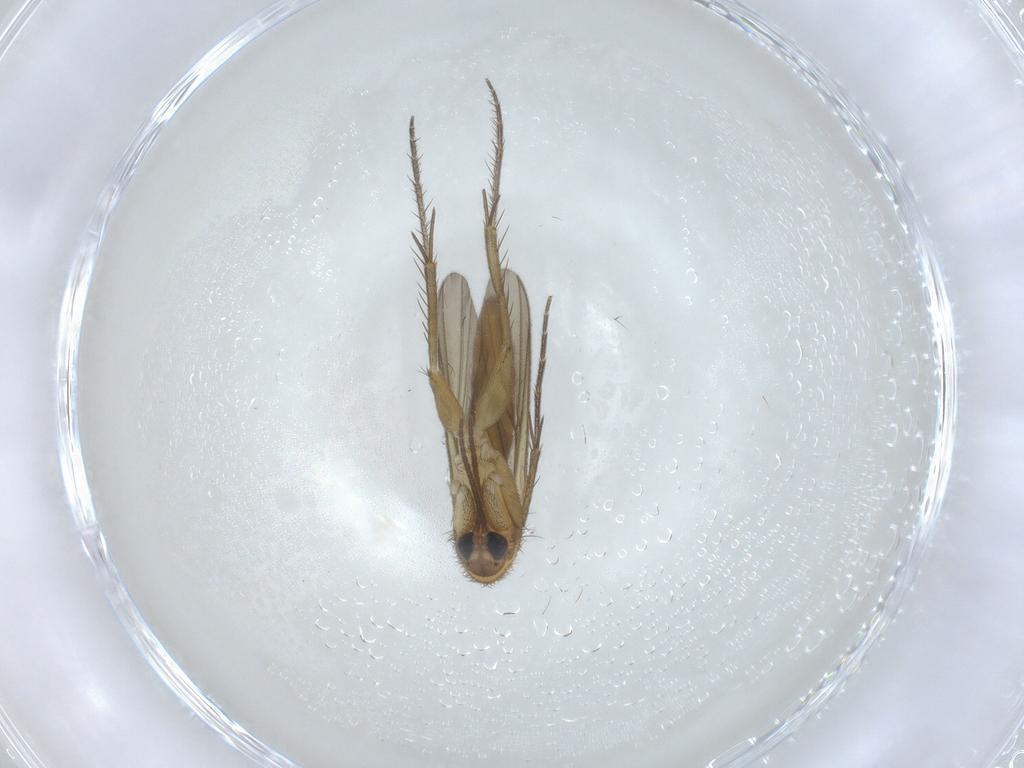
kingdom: Animalia
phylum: Arthropoda
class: Insecta
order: Diptera
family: Mycetophilidae
